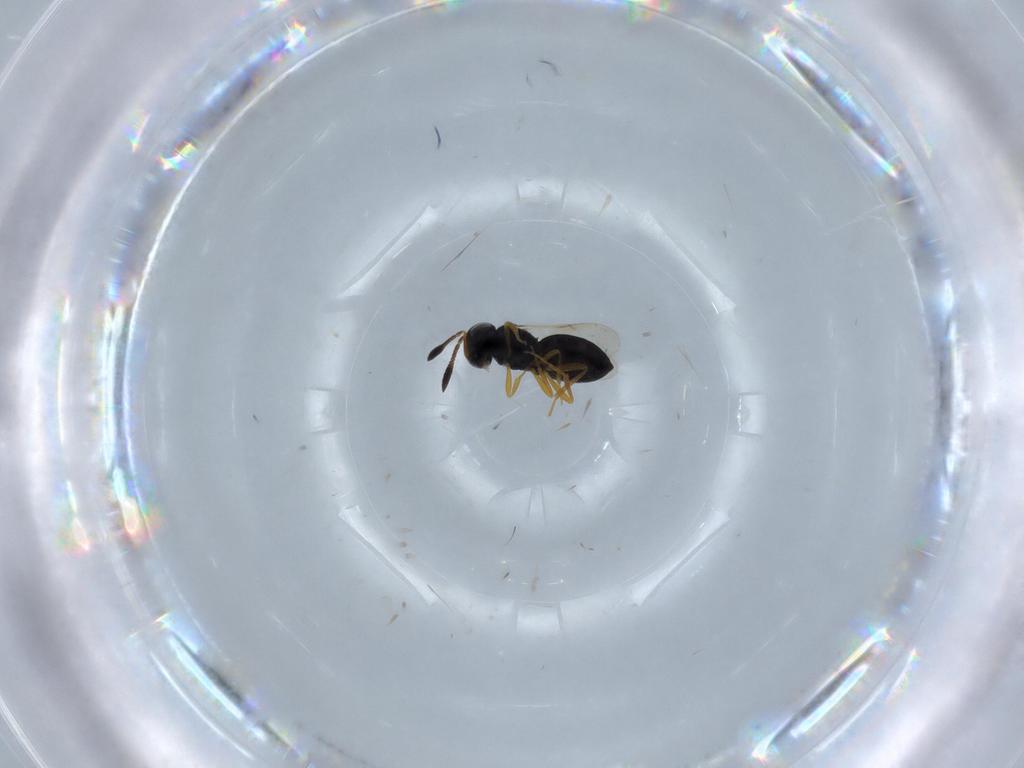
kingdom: Animalia
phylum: Arthropoda
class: Insecta
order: Hymenoptera
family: Scelionidae
